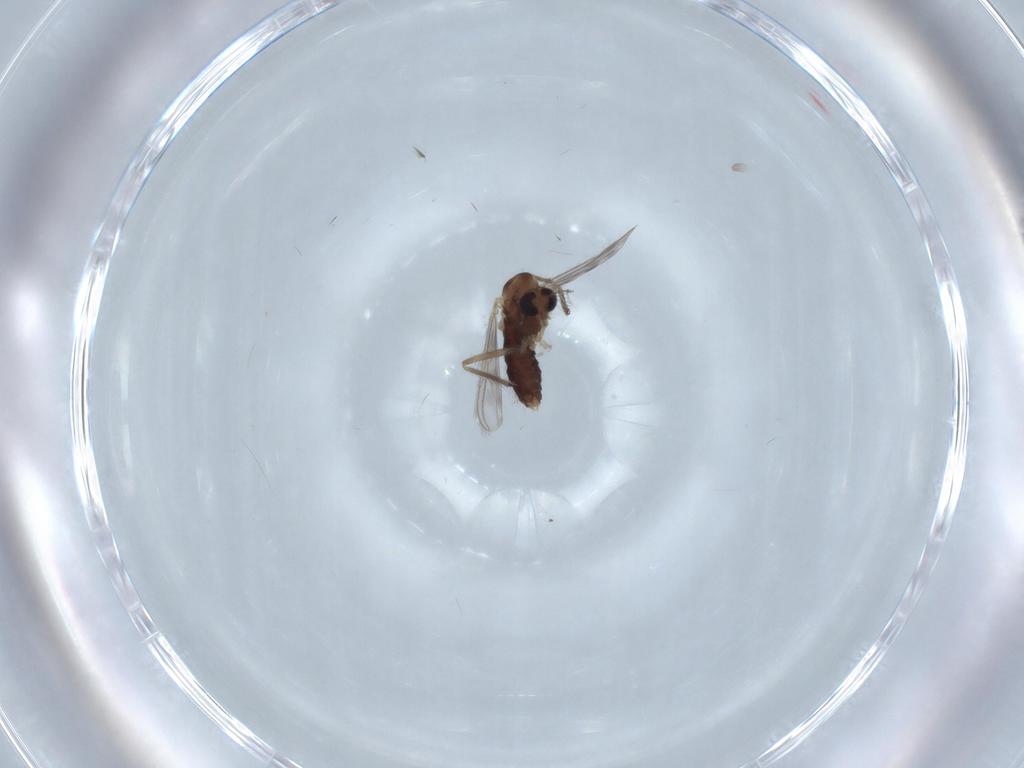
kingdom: Animalia
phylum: Arthropoda
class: Insecta
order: Diptera
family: Chironomidae
